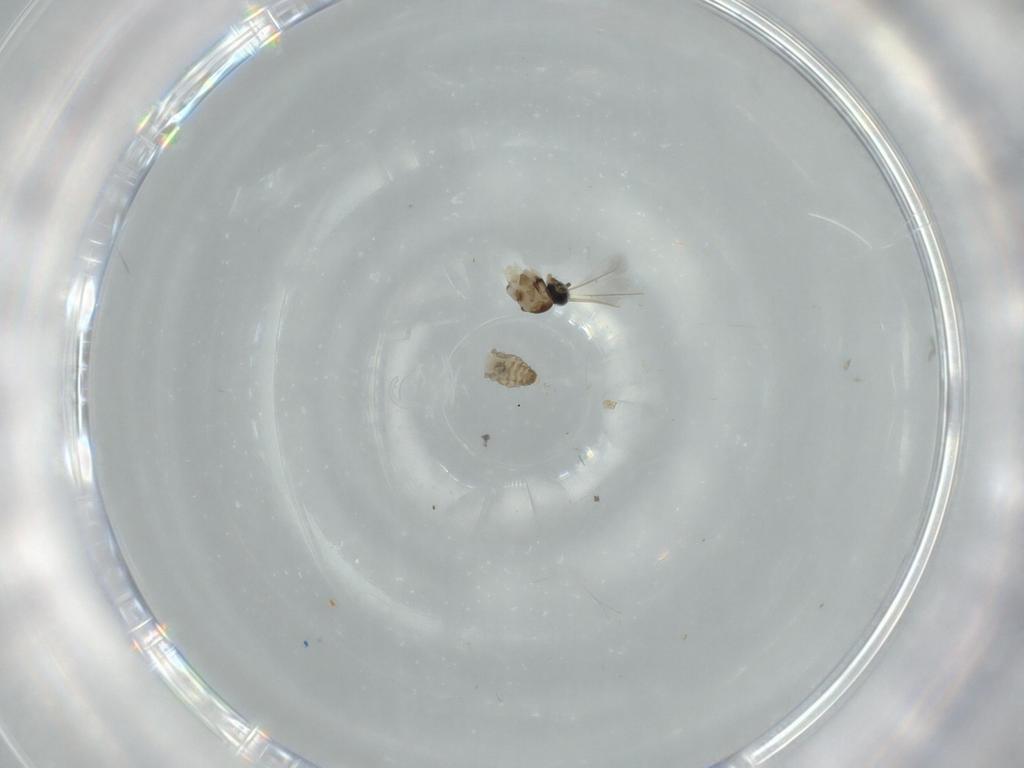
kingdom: Animalia
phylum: Arthropoda
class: Insecta
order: Diptera
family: Cecidomyiidae
